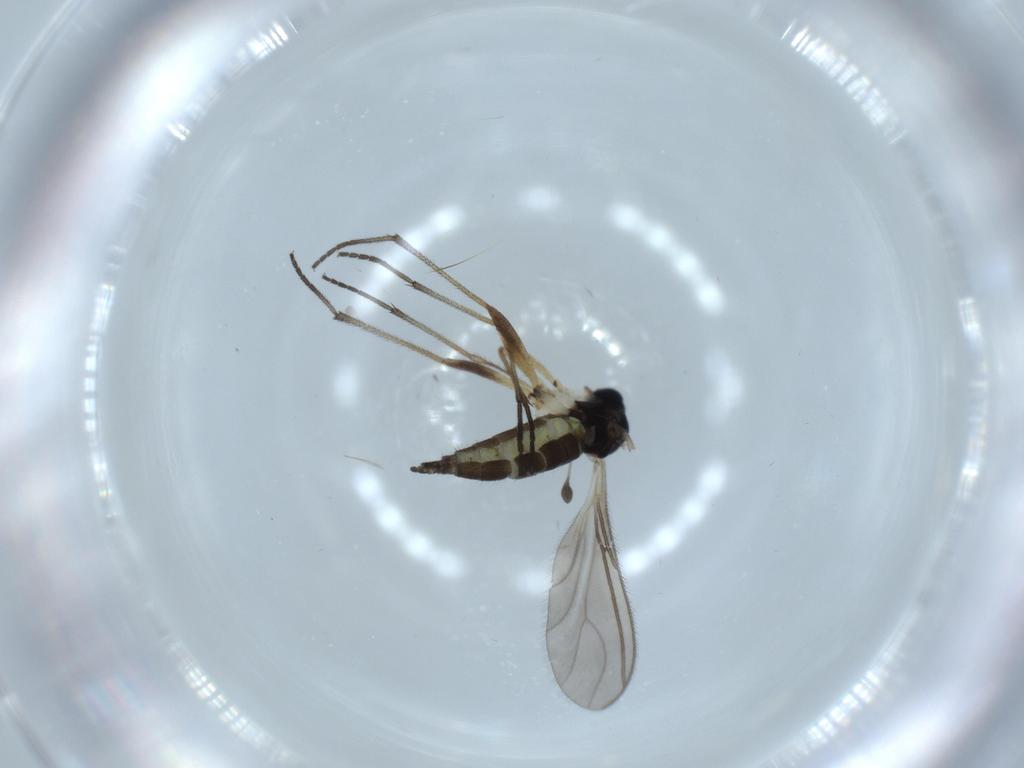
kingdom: Animalia
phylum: Arthropoda
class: Insecta
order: Diptera
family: Sciaridae
